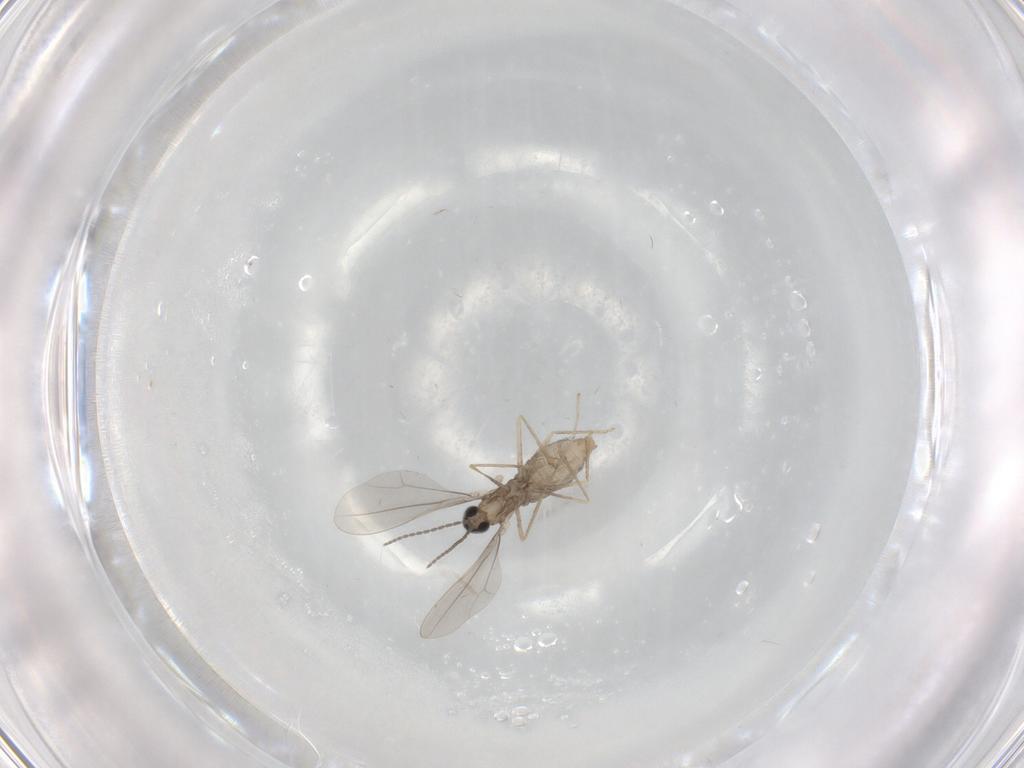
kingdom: Animalia
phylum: Arthropoda
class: Insecta
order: Diptera
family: Cecidomyiidae
